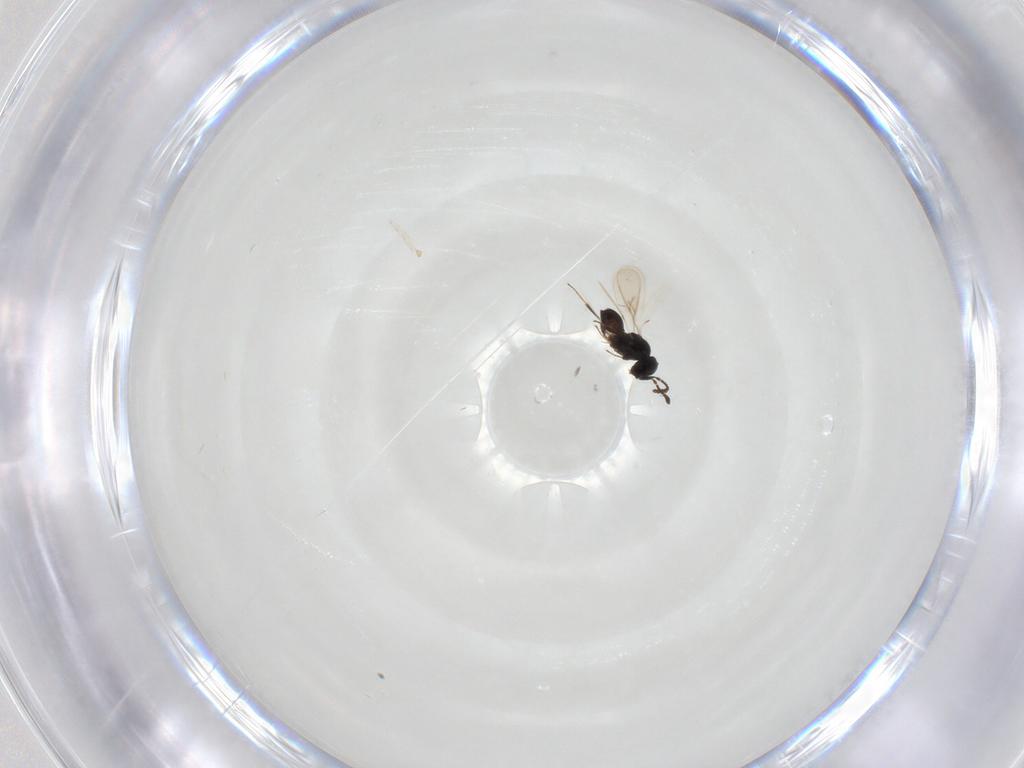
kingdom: Animalia
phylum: Arthropoda
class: Insecta
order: Hymenoptera
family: Scelionidae
